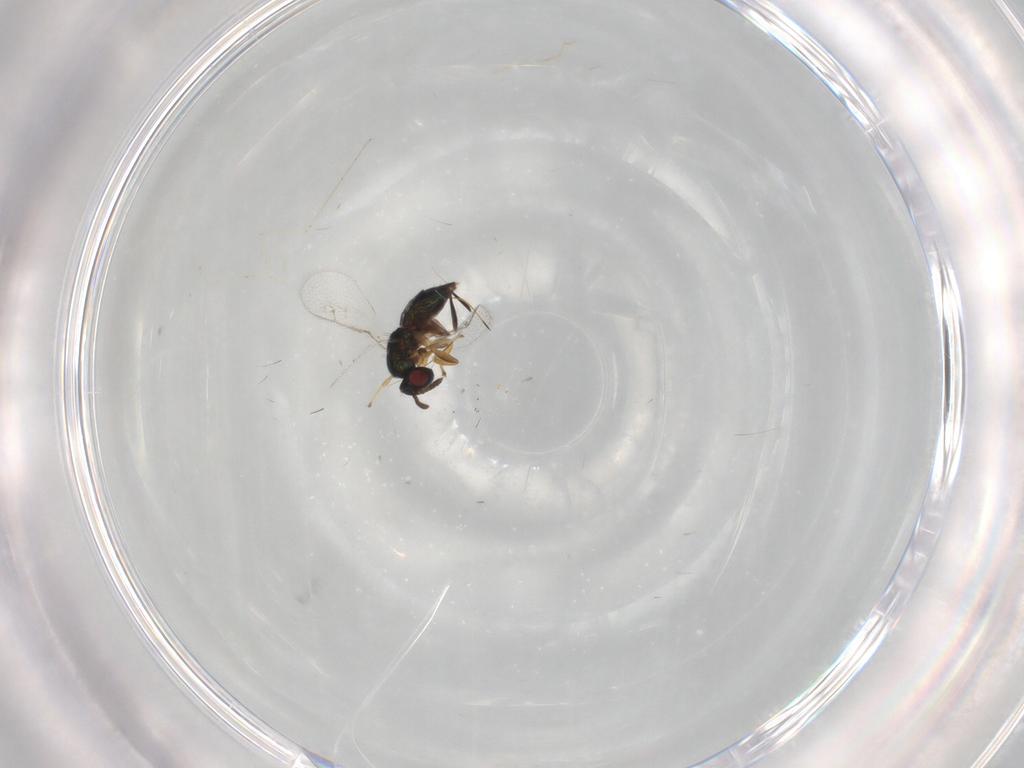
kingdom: Animalia
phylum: Arthropoda
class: Insecta
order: Hymenoptera
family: Torymidae
